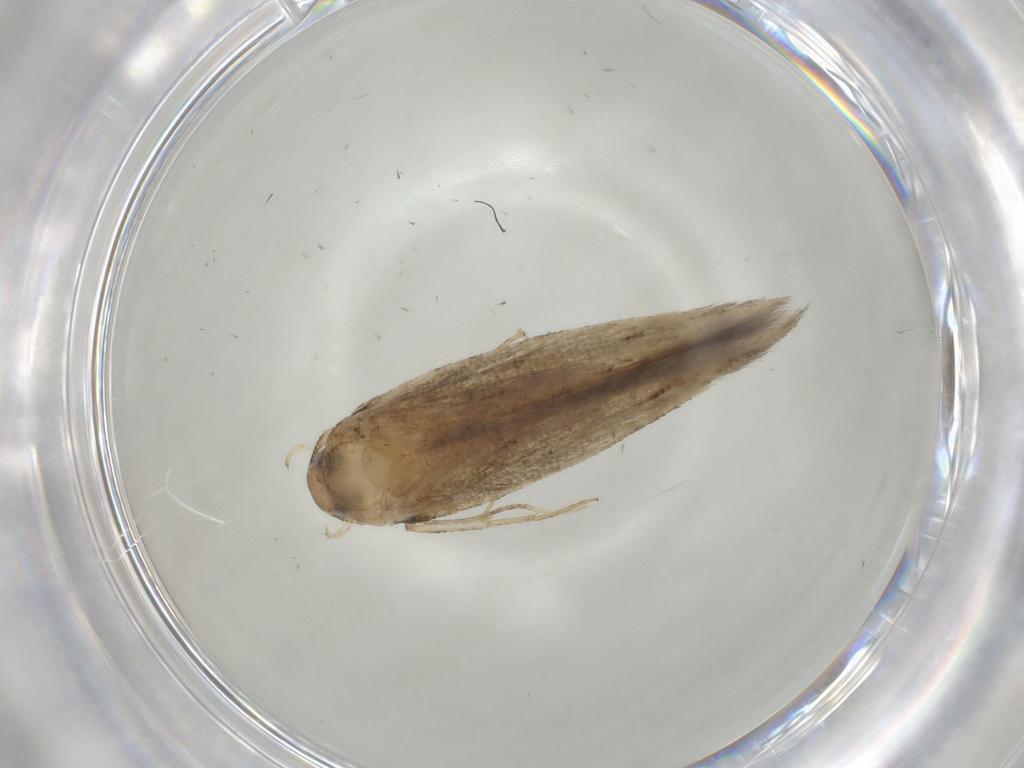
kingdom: Animalia
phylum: Arthropoda
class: Insecta
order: Lepidoptera
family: Gelechiidae
